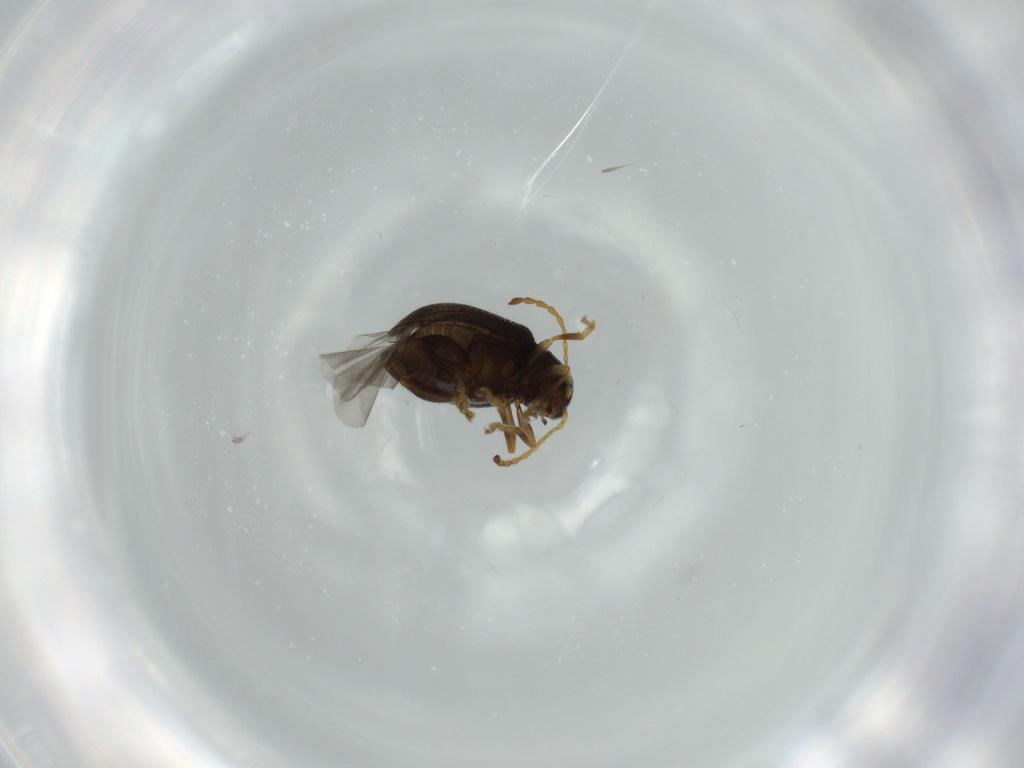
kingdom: Animalia
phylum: Arthropoda
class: Insecta
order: Coleoptera
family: Chrysomelidae
